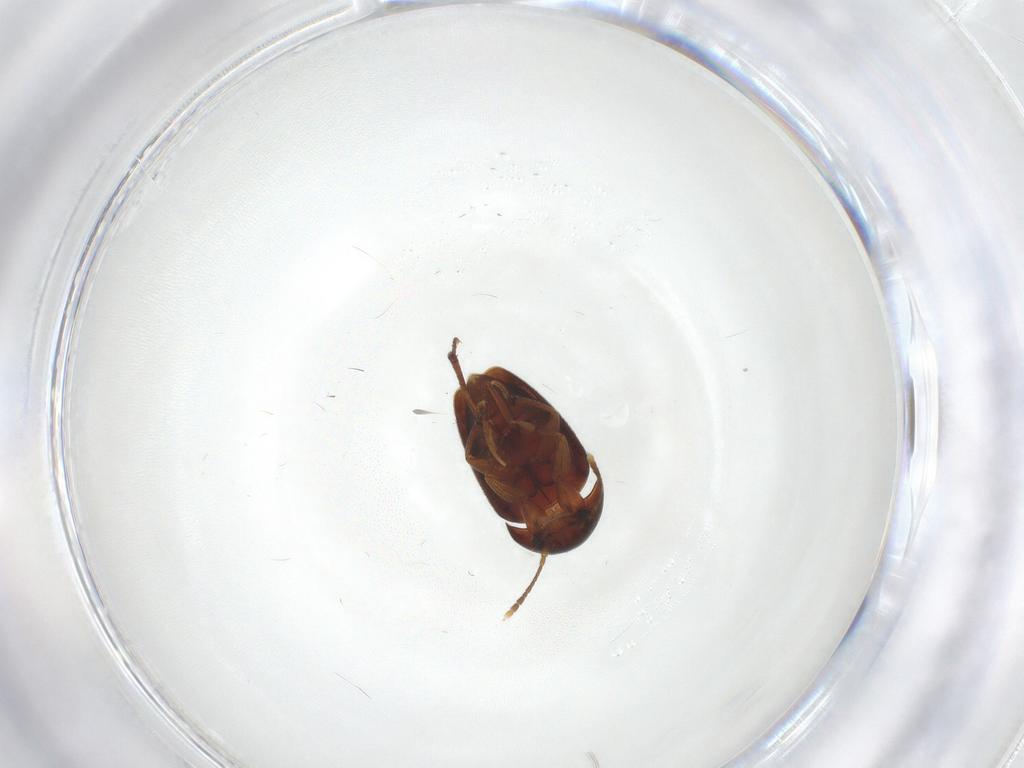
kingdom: Animalia
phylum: Arthropoda
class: Insecta
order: Coleoptera
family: Leiodidae
